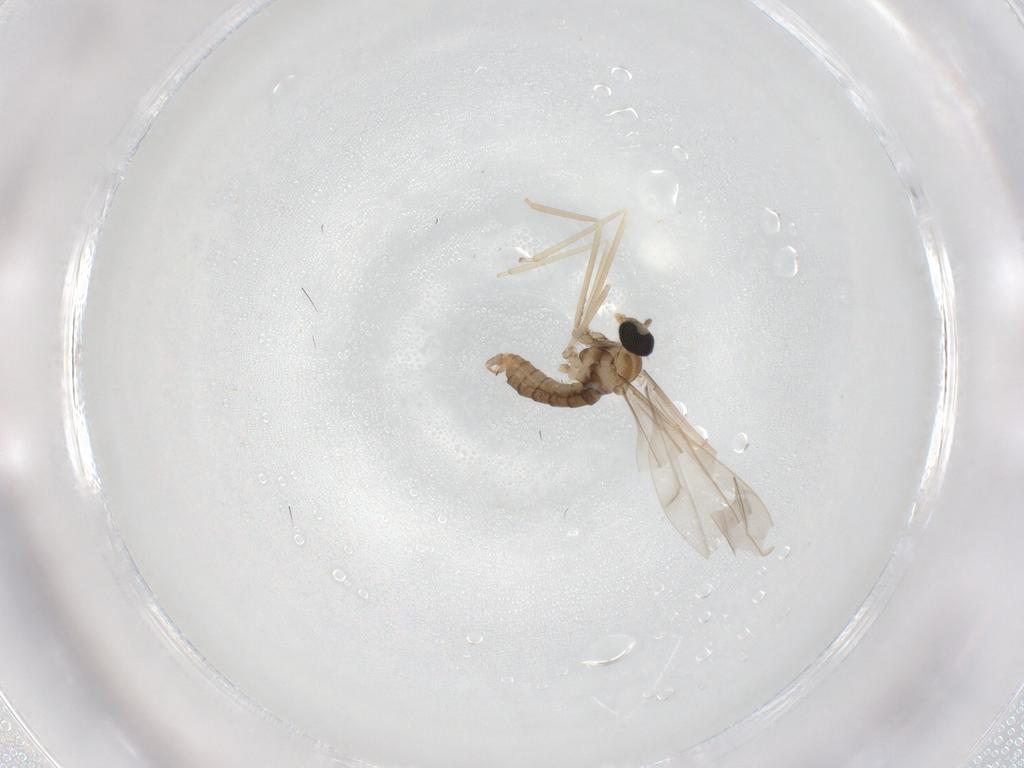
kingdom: Animalia
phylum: Arthropoda
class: Insecta
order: Diptera
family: Cecidomyiidae
